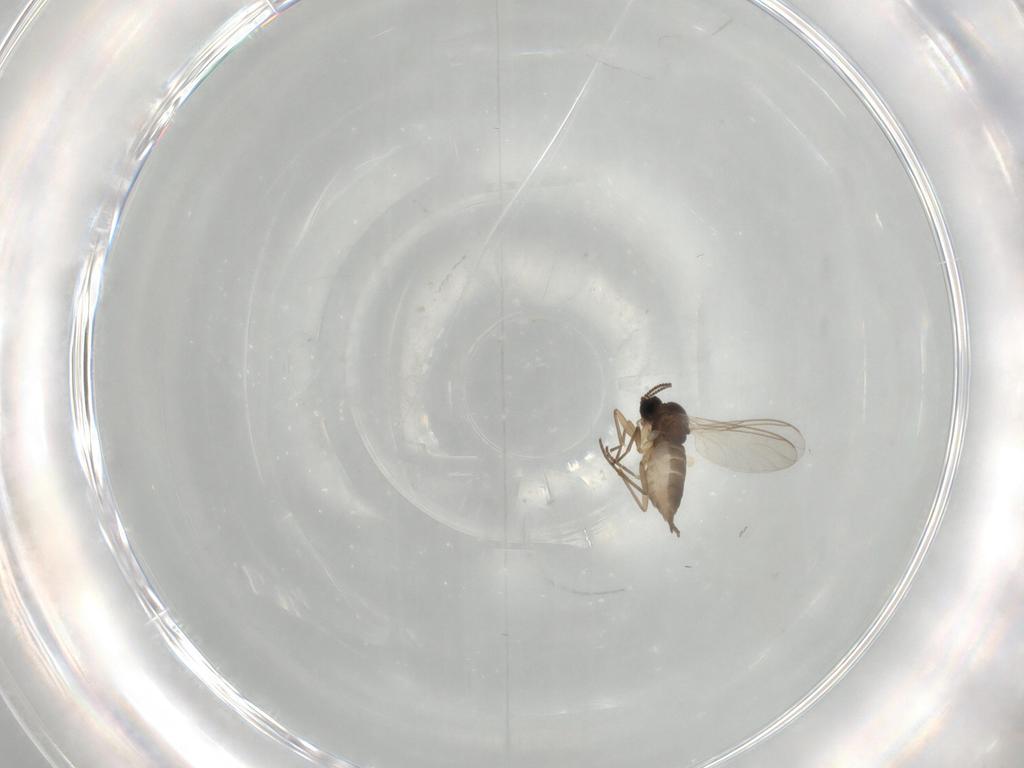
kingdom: Animalia
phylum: Arthropoda
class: Insecta
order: Diptera
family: Sciaridae
